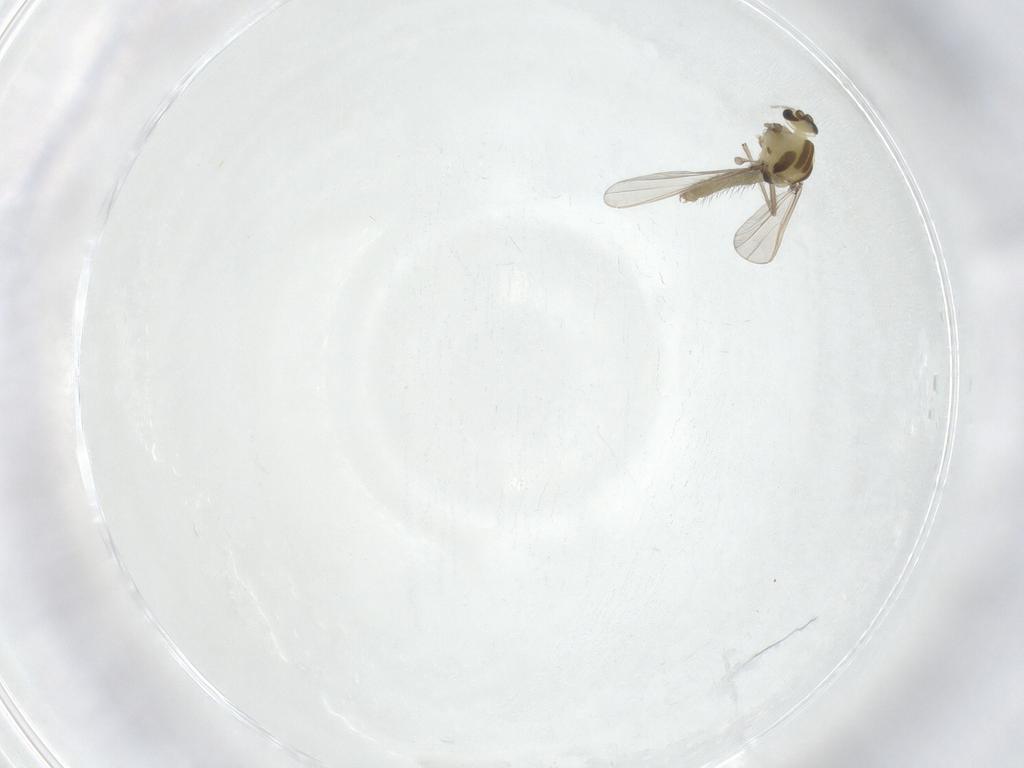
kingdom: Animalia
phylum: Arthropoda
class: Insecta
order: Diptera
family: Chironomidae
